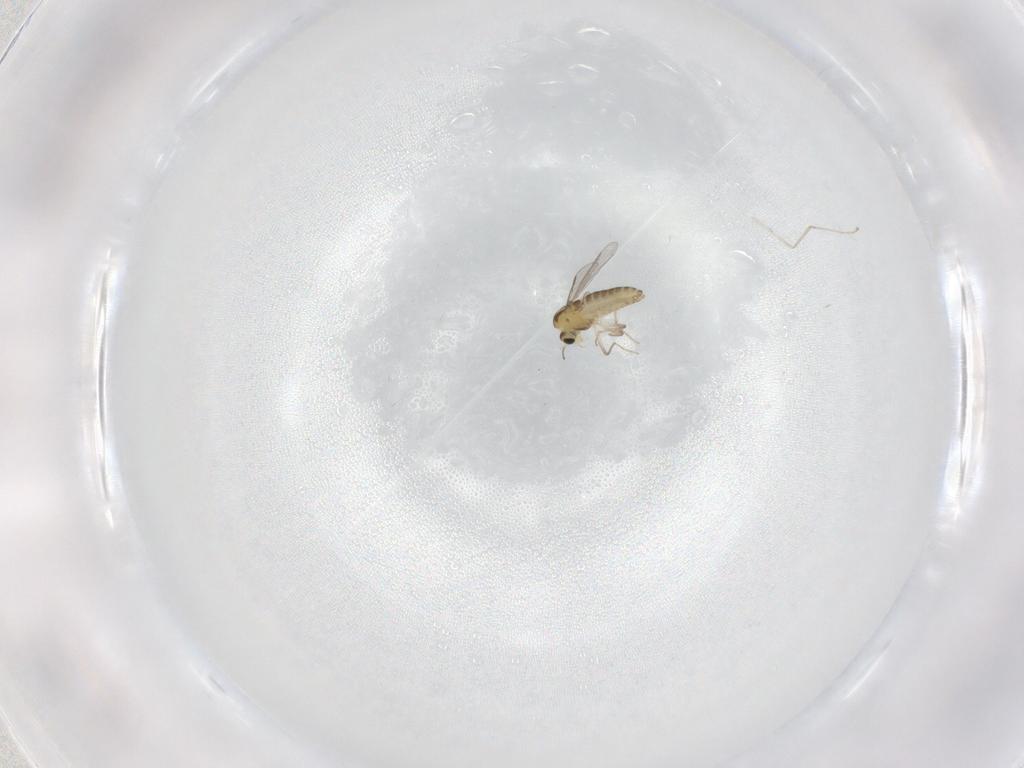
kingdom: Animalia
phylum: Arthropoda
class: Insecta
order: Diptera
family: Chironomidae
